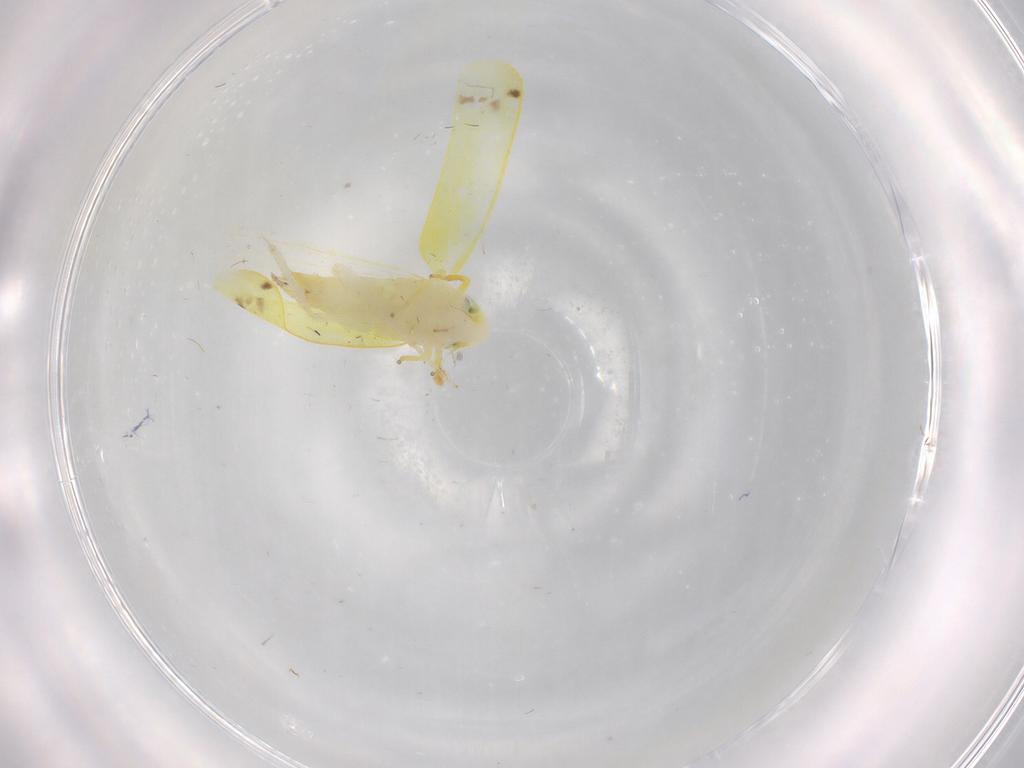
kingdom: Animalia
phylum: Arthropoda
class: Insecta
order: Hemiptera
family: Cicadellidae
